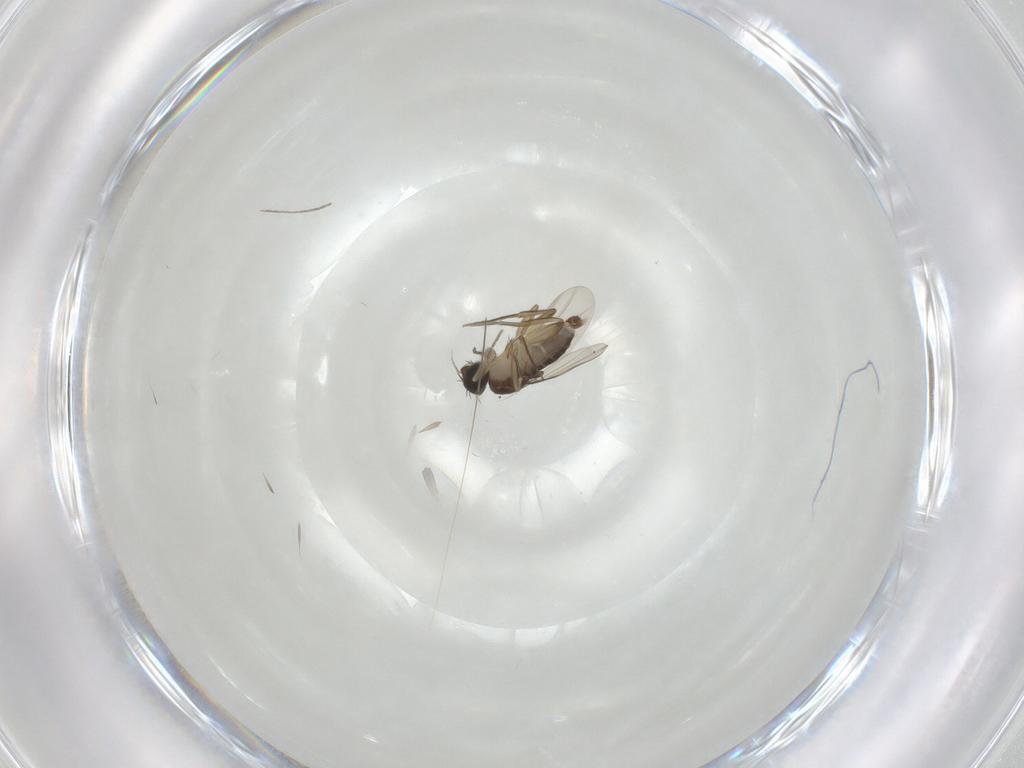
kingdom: Animalia
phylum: Arthropoda
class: Insecta
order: Diptera
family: Phoridae
